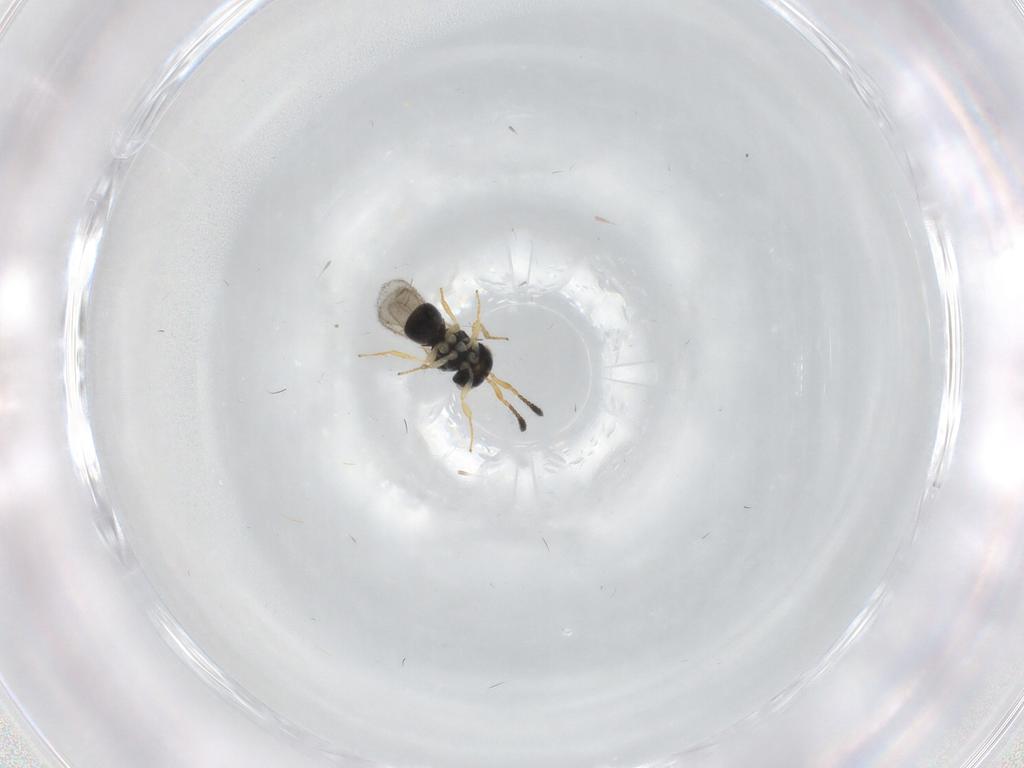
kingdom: Animalia
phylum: Arthropoda
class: Insecta
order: Hymenoptera
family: Scelionidae
